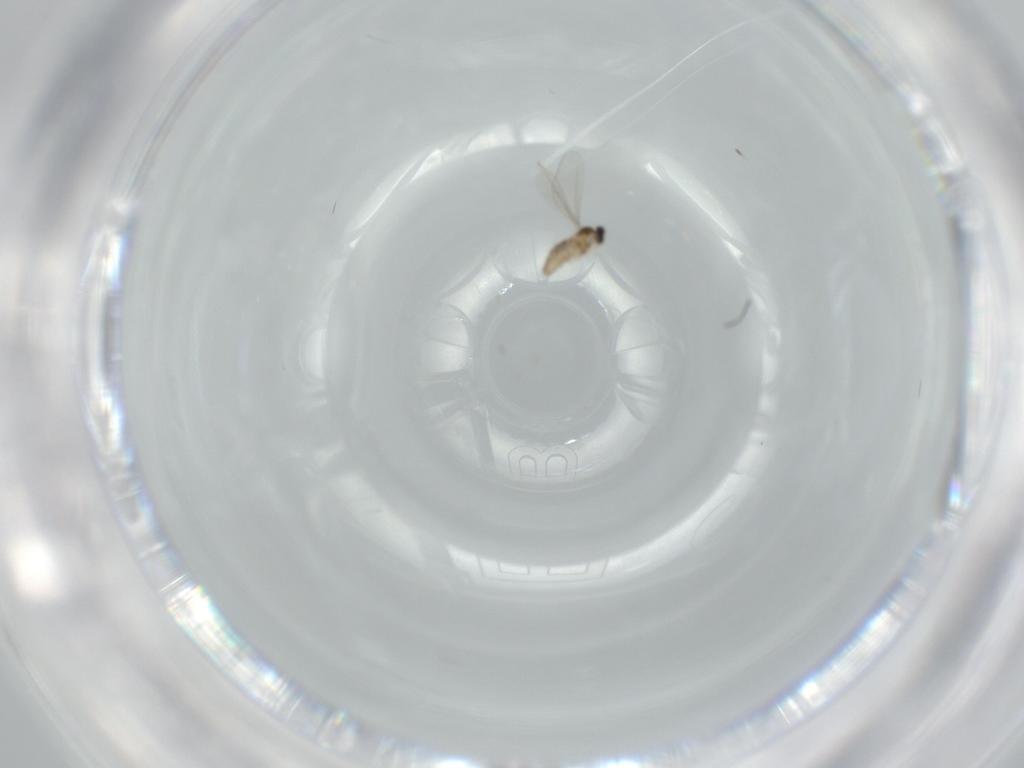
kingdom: Animalia
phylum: Arthropoda
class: Insecta
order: Diptera
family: Cecidomyiidae
